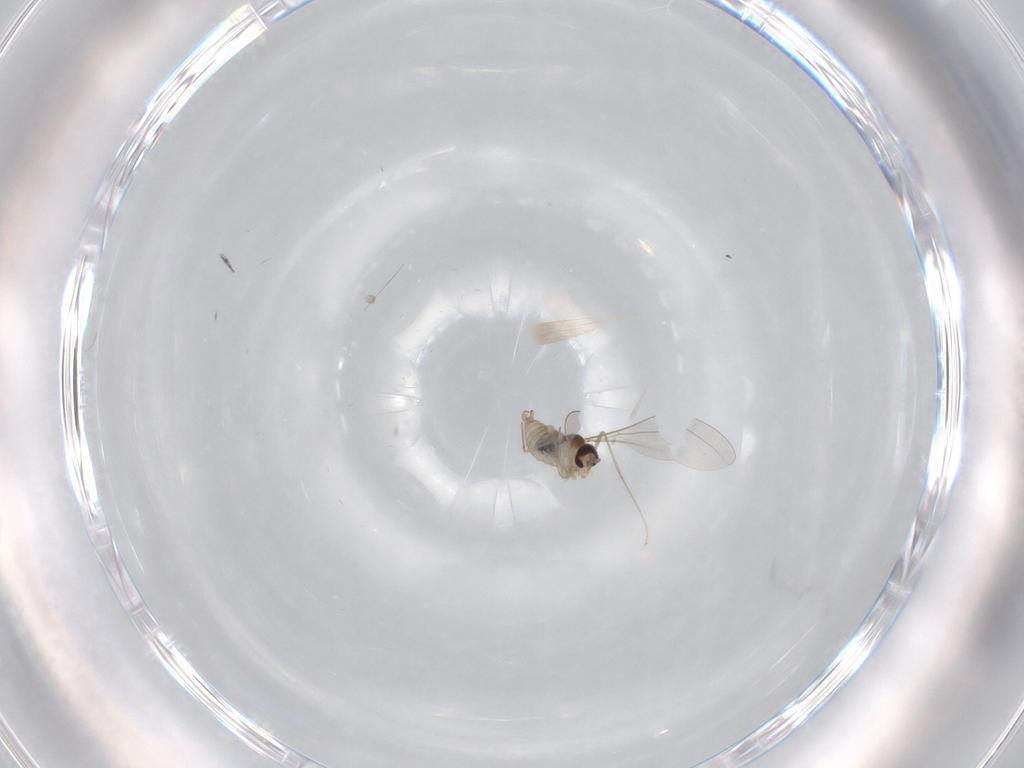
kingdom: Animalia
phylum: Arthropoda
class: Insecta
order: Diptera
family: Cecidomyiidae
